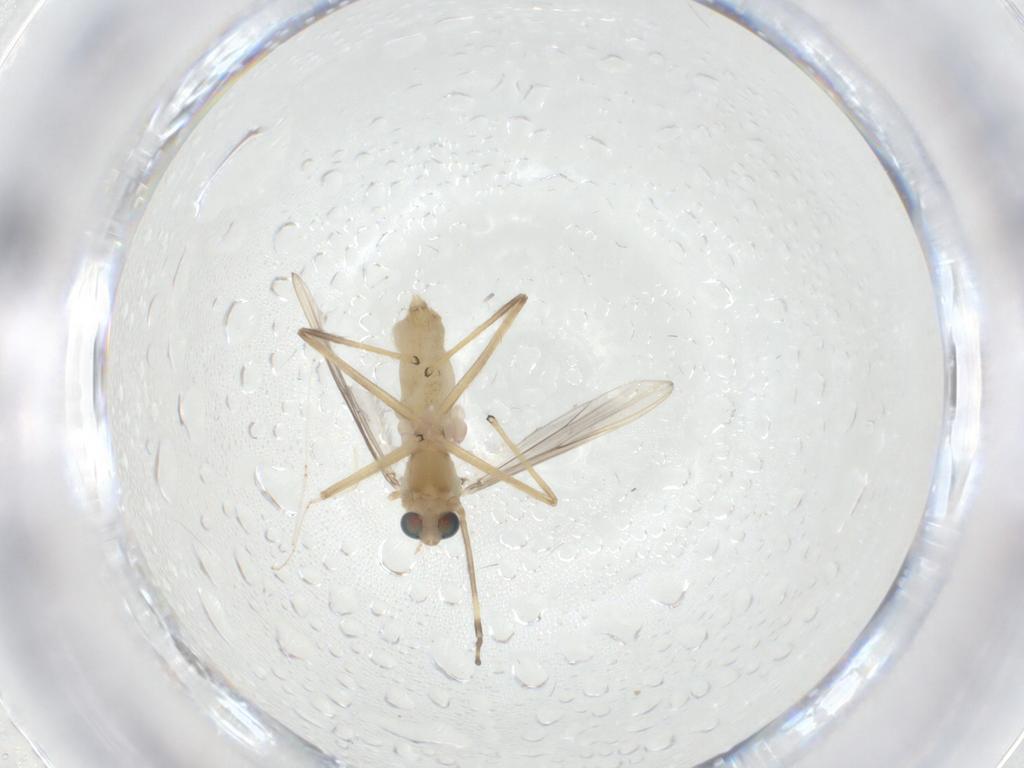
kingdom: Animalia
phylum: Arthropoda
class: Insecta
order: Diptera
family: Chironomidae
